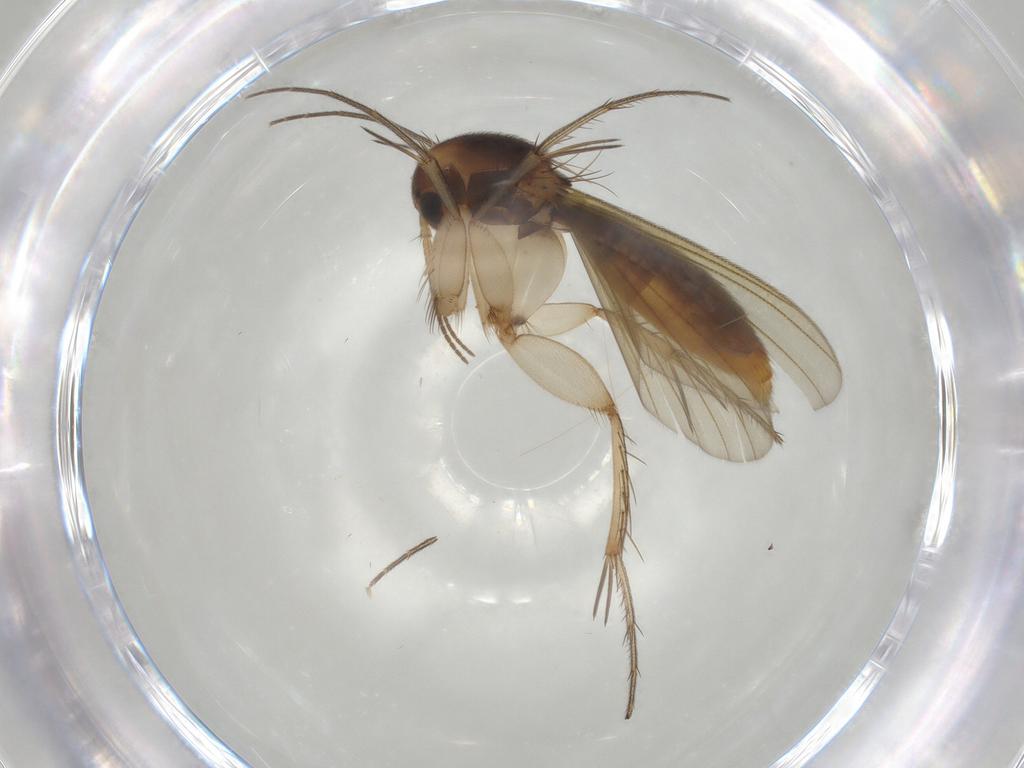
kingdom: Animalia
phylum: Arthropoda
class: Insecta
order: Diptera
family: Mycetophilidae
